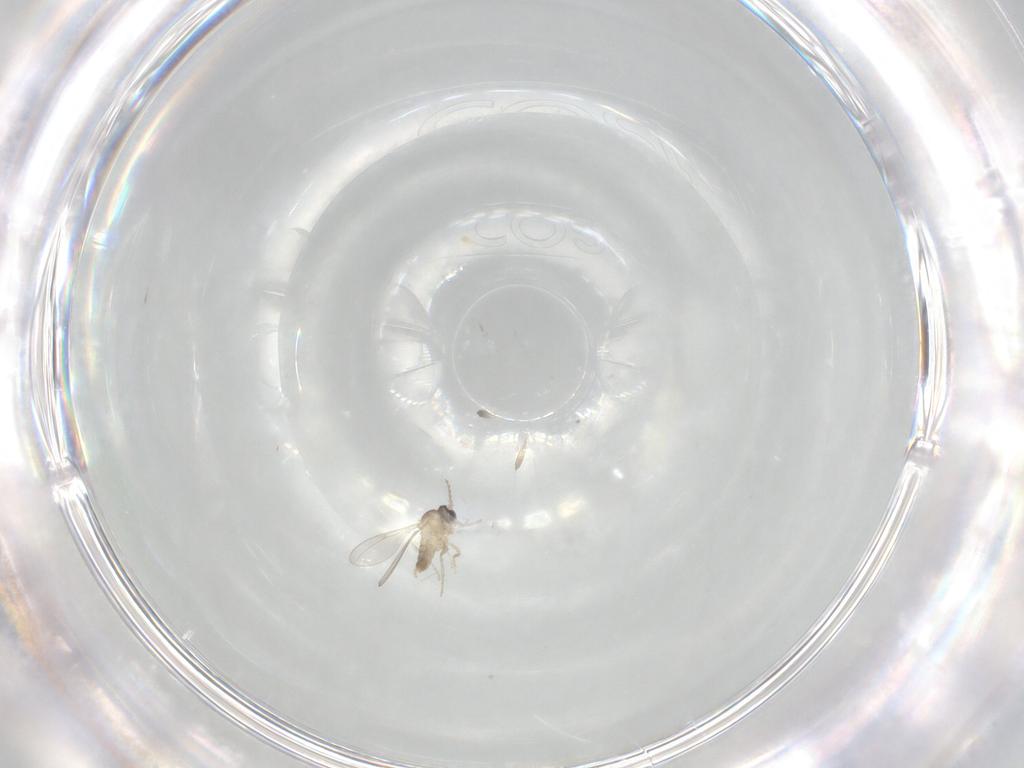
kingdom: Animalia
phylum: Arthropoda
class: Insecta
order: Diptera
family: Cecidomyiidae
